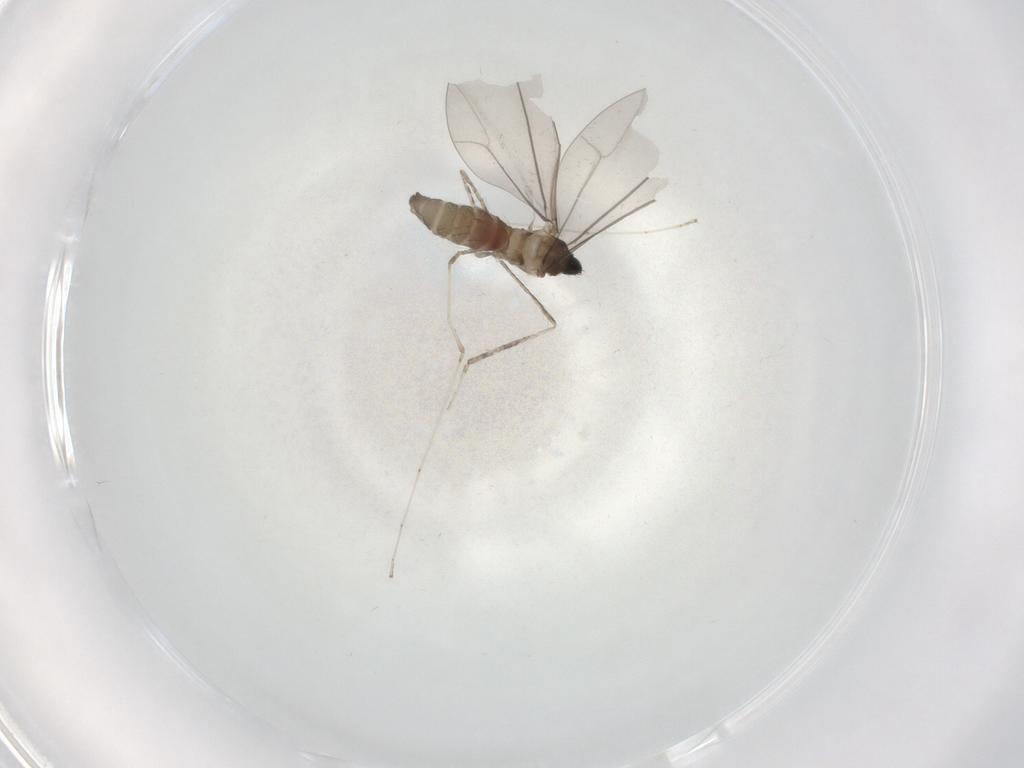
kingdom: Animalia
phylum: Arthropoda
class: Insecta
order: Diptera
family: Cecidomyiidae
